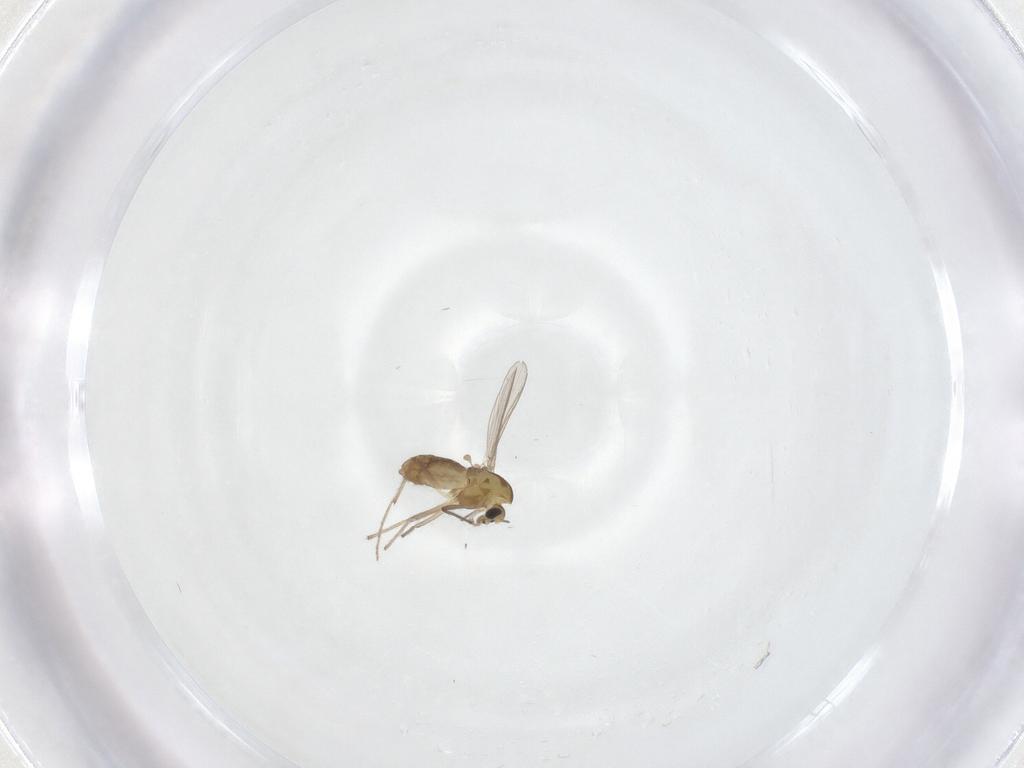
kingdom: Animalia
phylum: Arthropoda
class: Insecta
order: Diptera
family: Chironomidae
